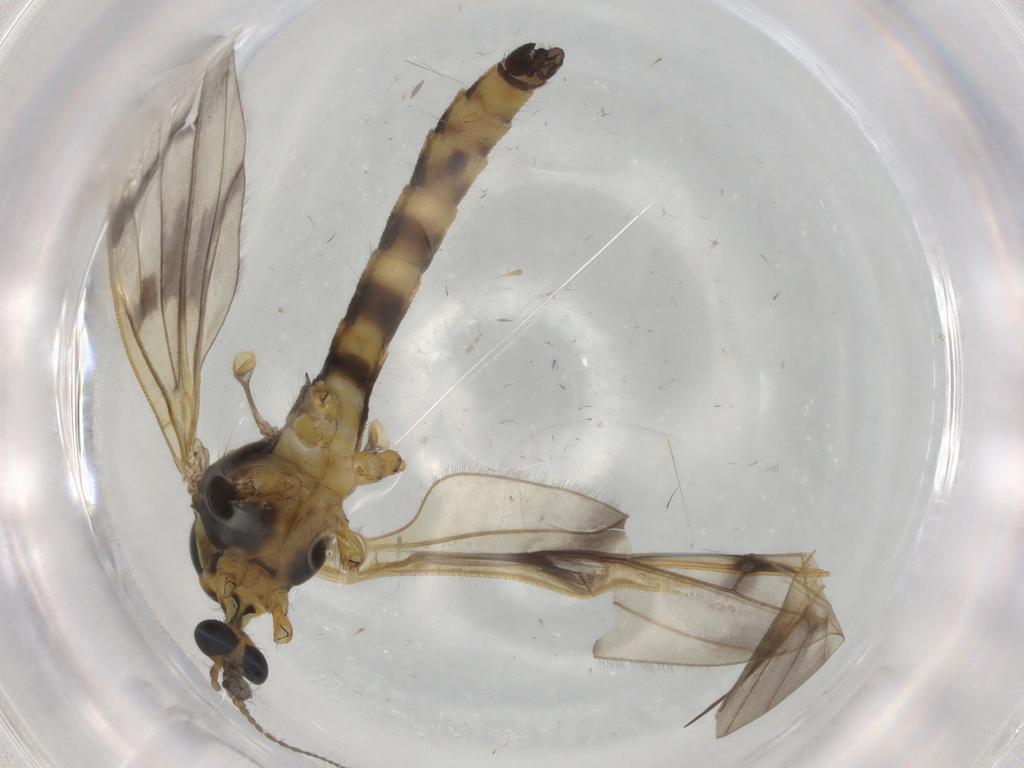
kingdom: Animalia
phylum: Arthropoda
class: Insecta
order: Diptera
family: Limoniidae
